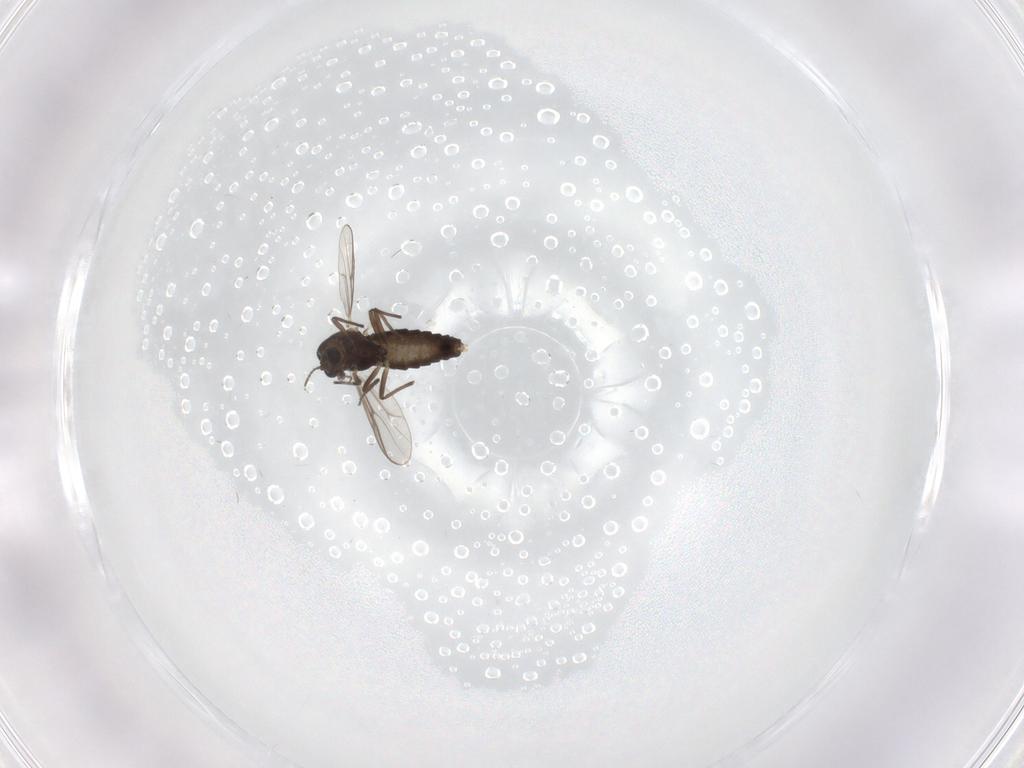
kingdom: Animalia
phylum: Arthropoda
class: Insecta
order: Diptera
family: Chironomidae
